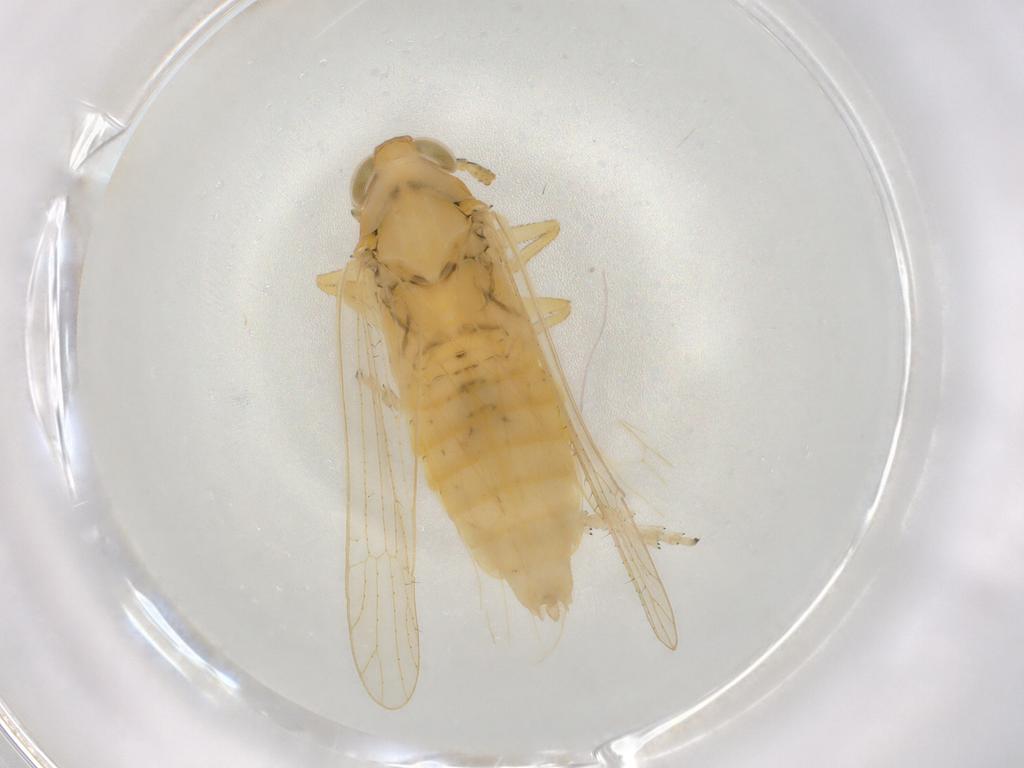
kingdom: Animalia
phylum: Arthropoda
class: Insecta
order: Hemiptera
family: Delphacidae
